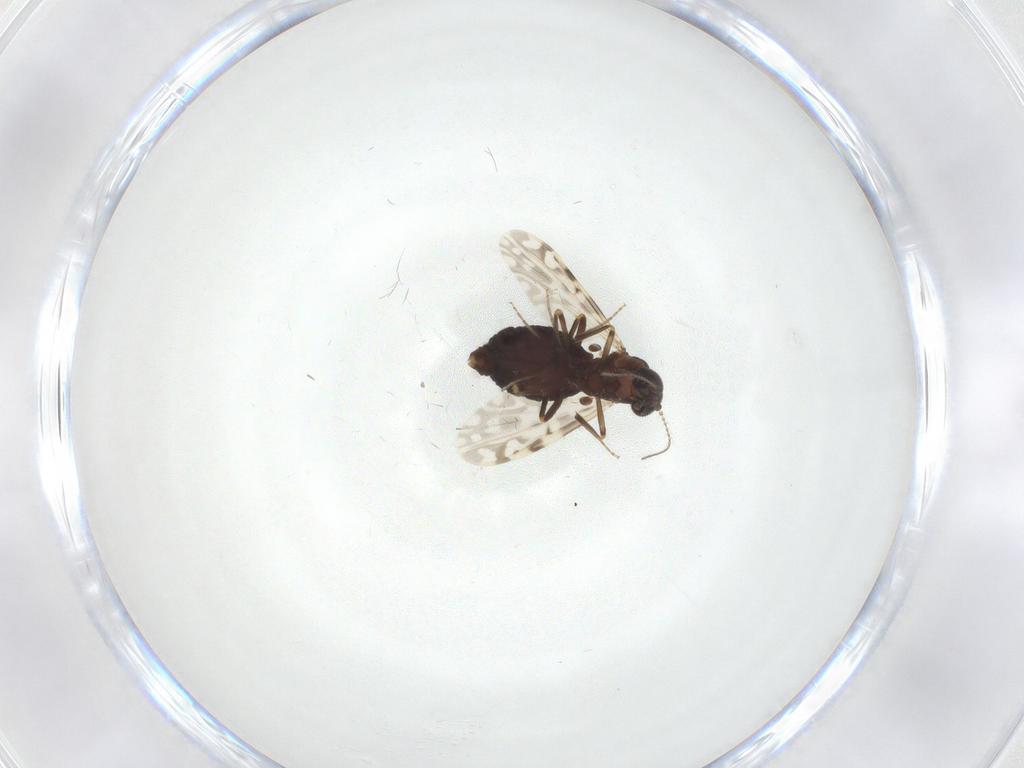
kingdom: Animalia
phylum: Arthropoda
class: Insecta
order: Diptera
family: Ceratopogonidae
